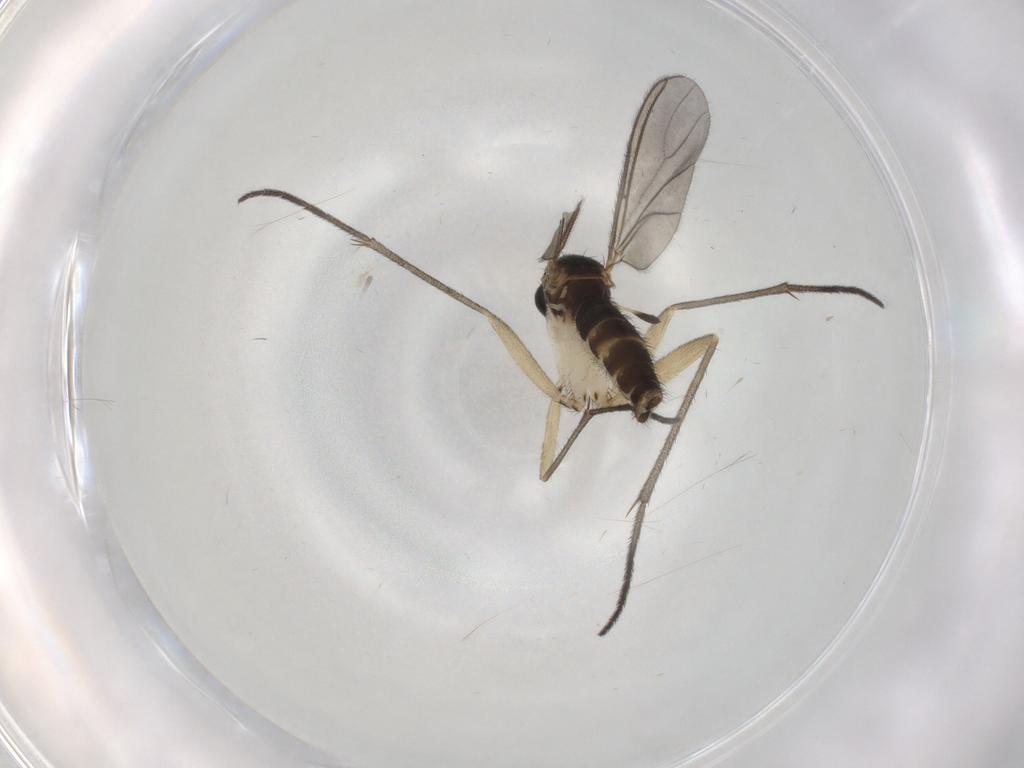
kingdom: Animalia
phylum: Arthropoda
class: Insecta
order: Diptera
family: Sciaridae
